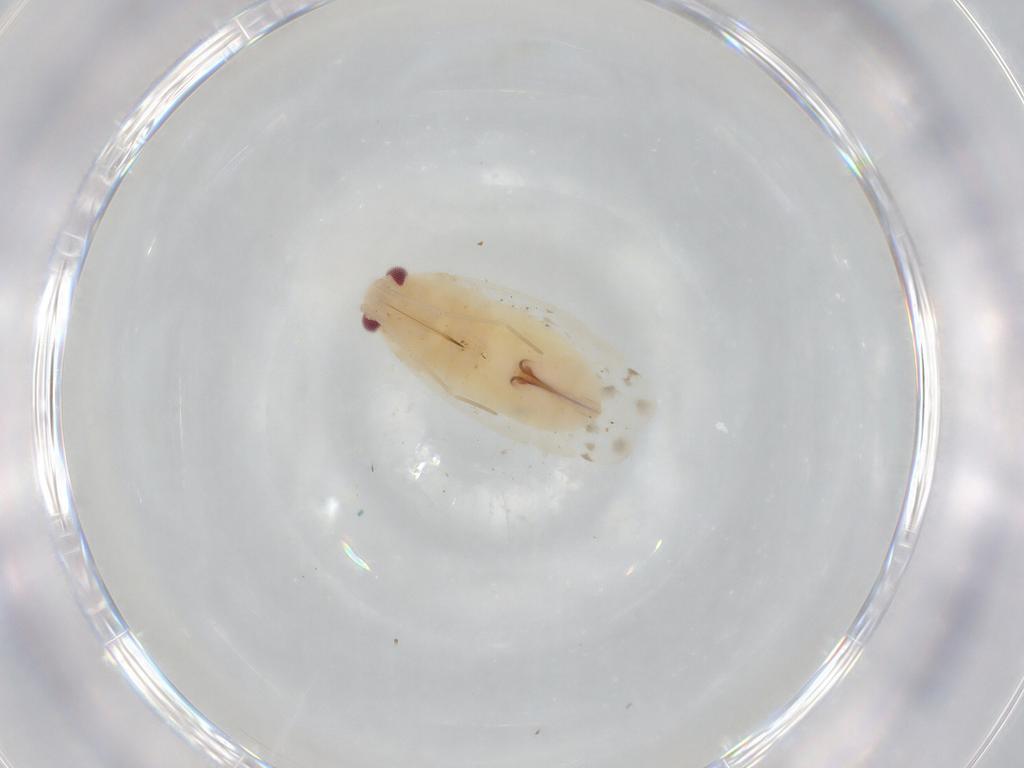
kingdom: Animalia
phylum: Arthropoda
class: Insecta
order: Hemiptera
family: Miridae
